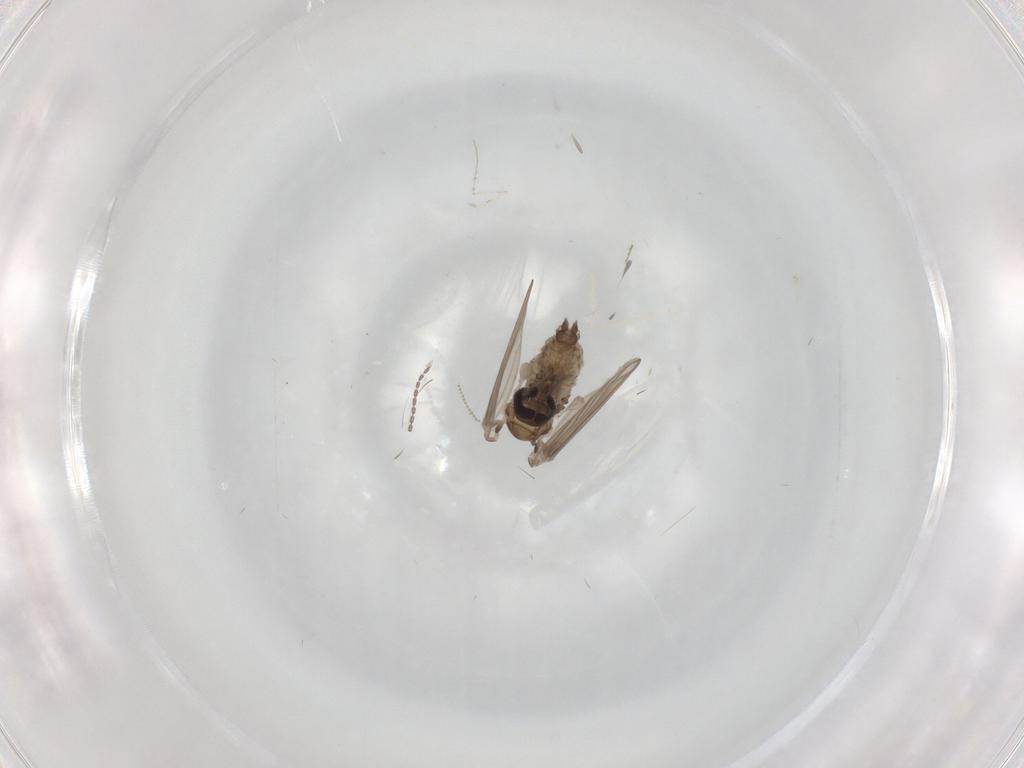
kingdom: Animalia
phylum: Arthropoda
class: Insecta
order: Diptera
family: Cecidomyiidae
